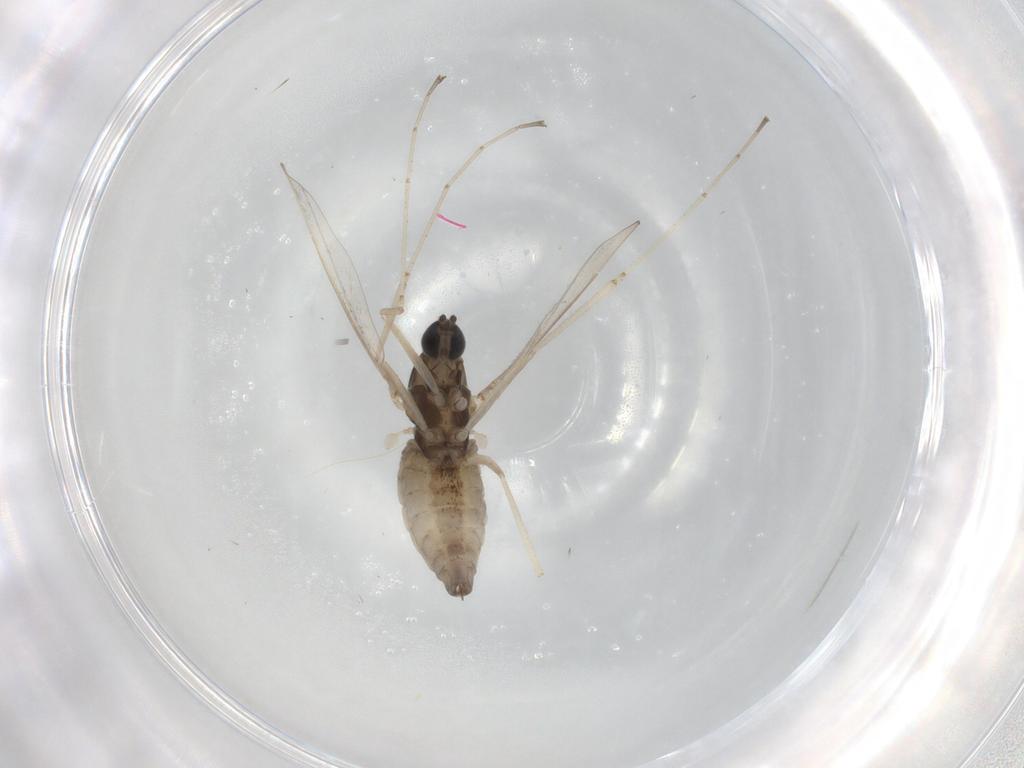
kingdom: Animalia
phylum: Arthropoda
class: Insecta
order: Diptera
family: Cecidomyiidae
